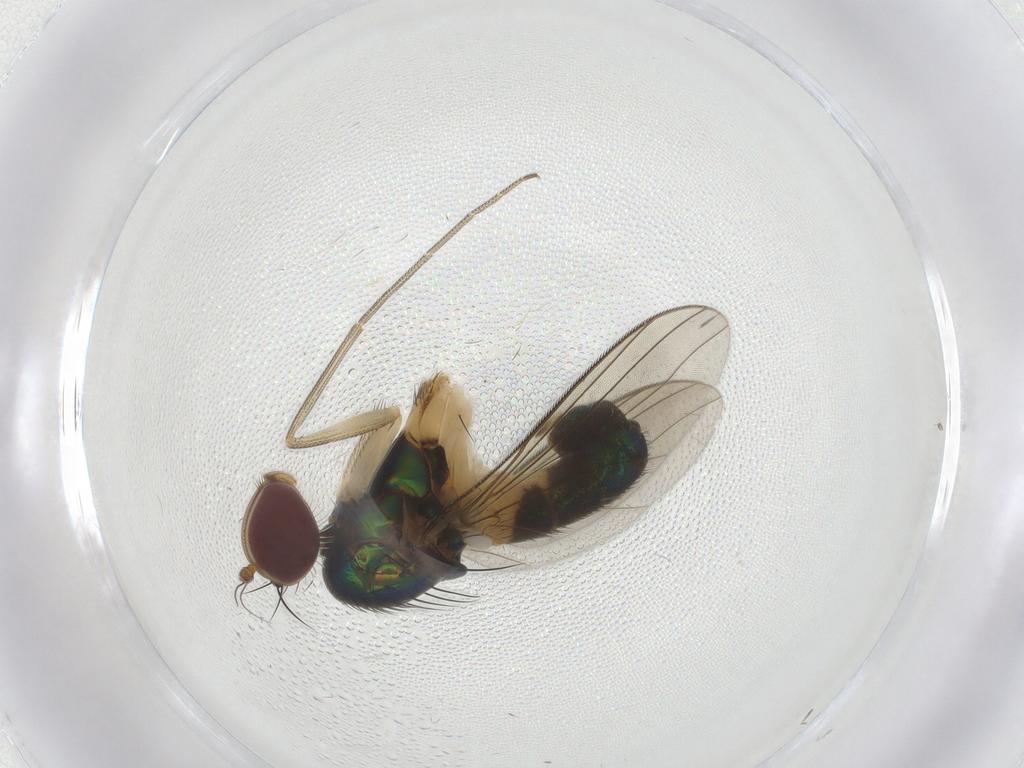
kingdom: Animalia
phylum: Arthropoda
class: Insecta
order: Diptera
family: Dolichopodidae
